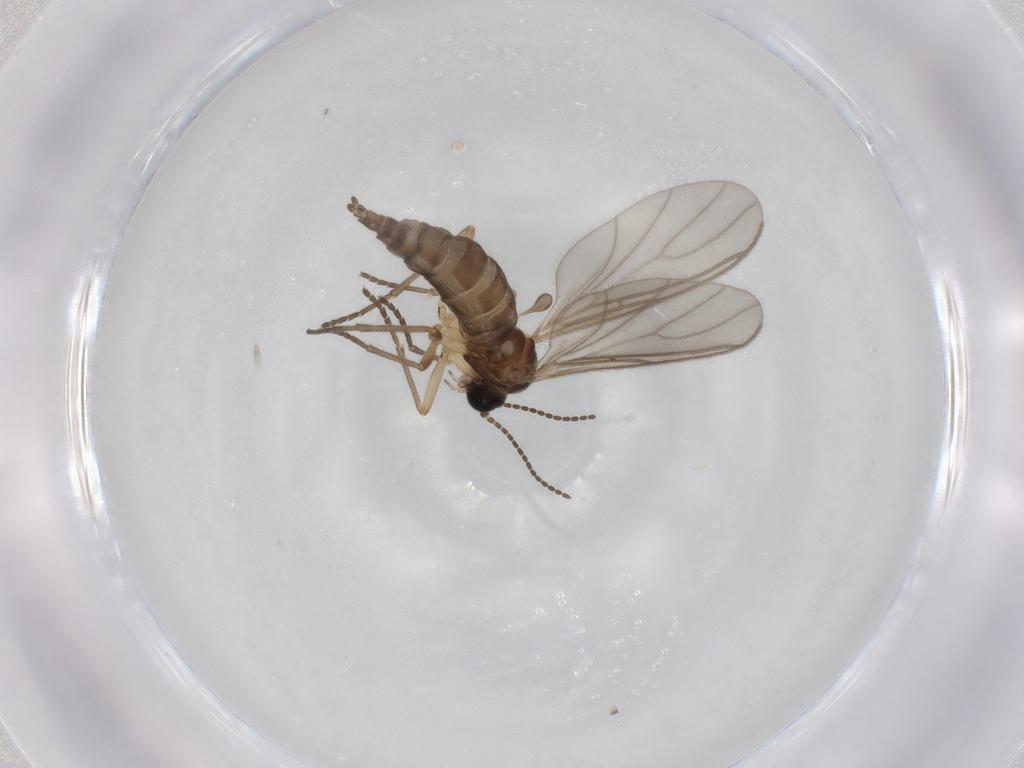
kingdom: Animalia
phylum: Arthropoda
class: Insecta
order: Diptera
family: Sciaridae
